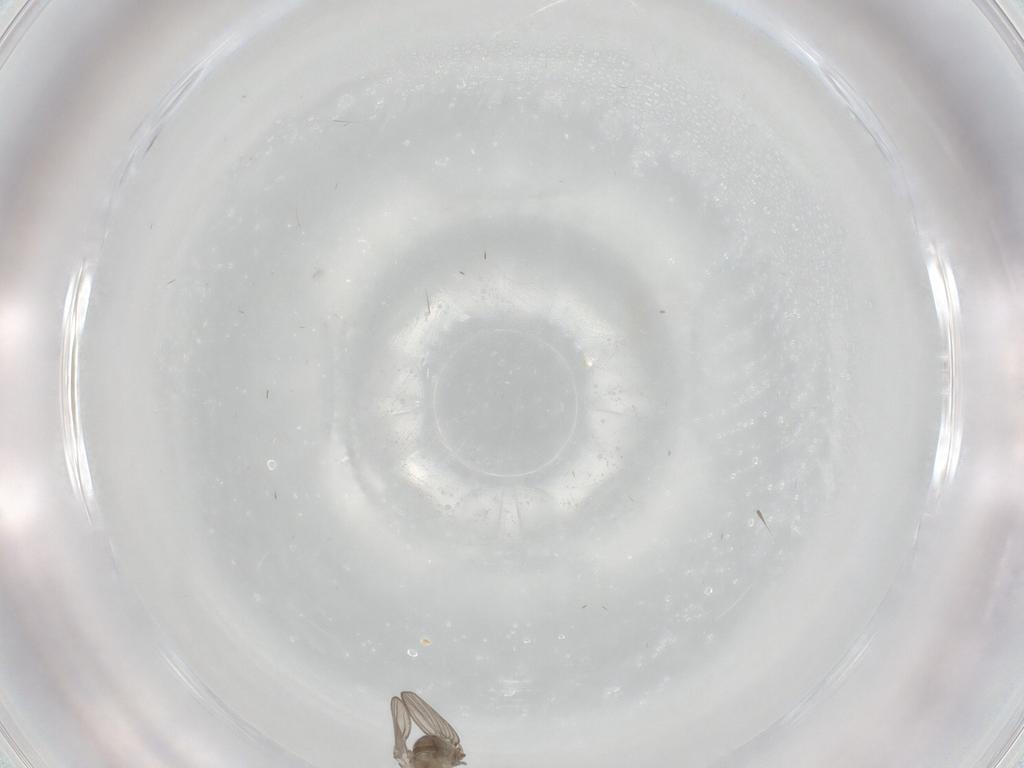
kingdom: Animalia
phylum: Arthropoda
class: Insecta
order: Diptera
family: Psychodidae
